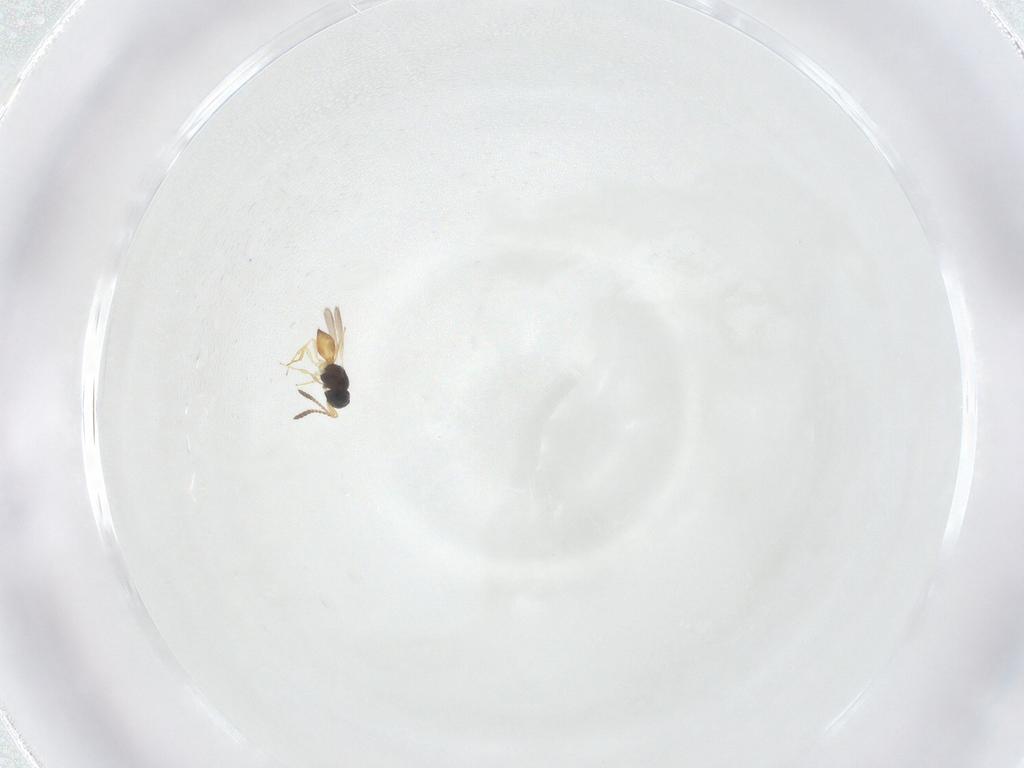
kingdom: Animalia
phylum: Arthropoda
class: Insecta
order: Hymenoptera
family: Scelionidae
